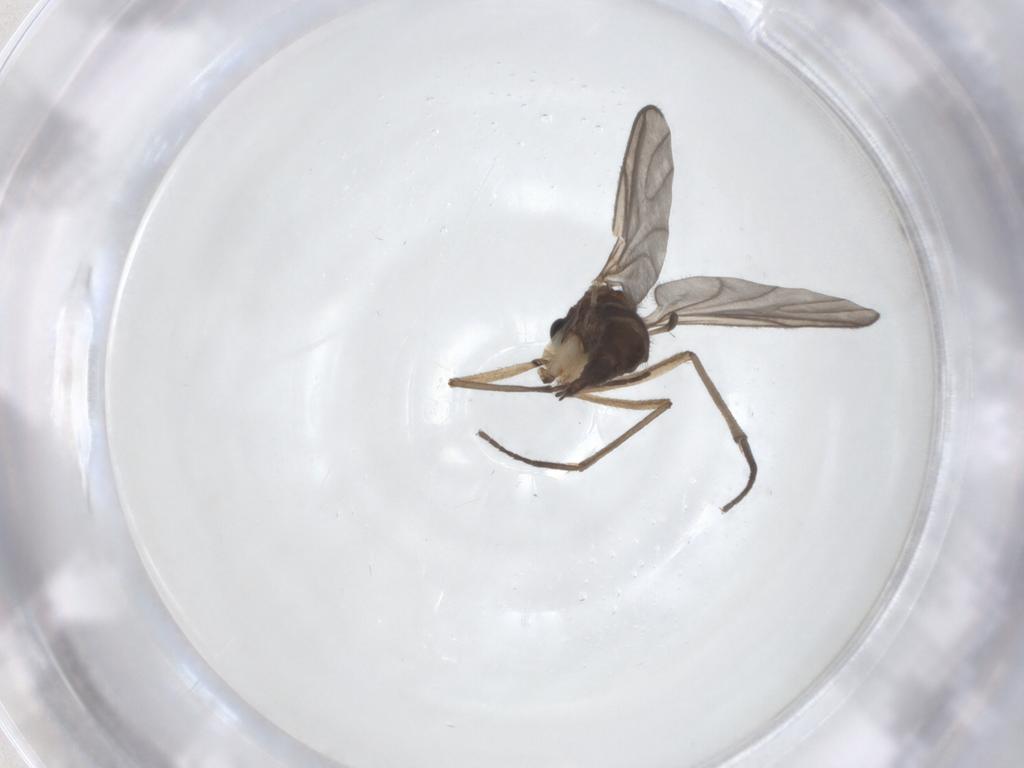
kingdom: Animalia
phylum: Arthropoda
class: Insecta
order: Diptera
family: Sciaridae
